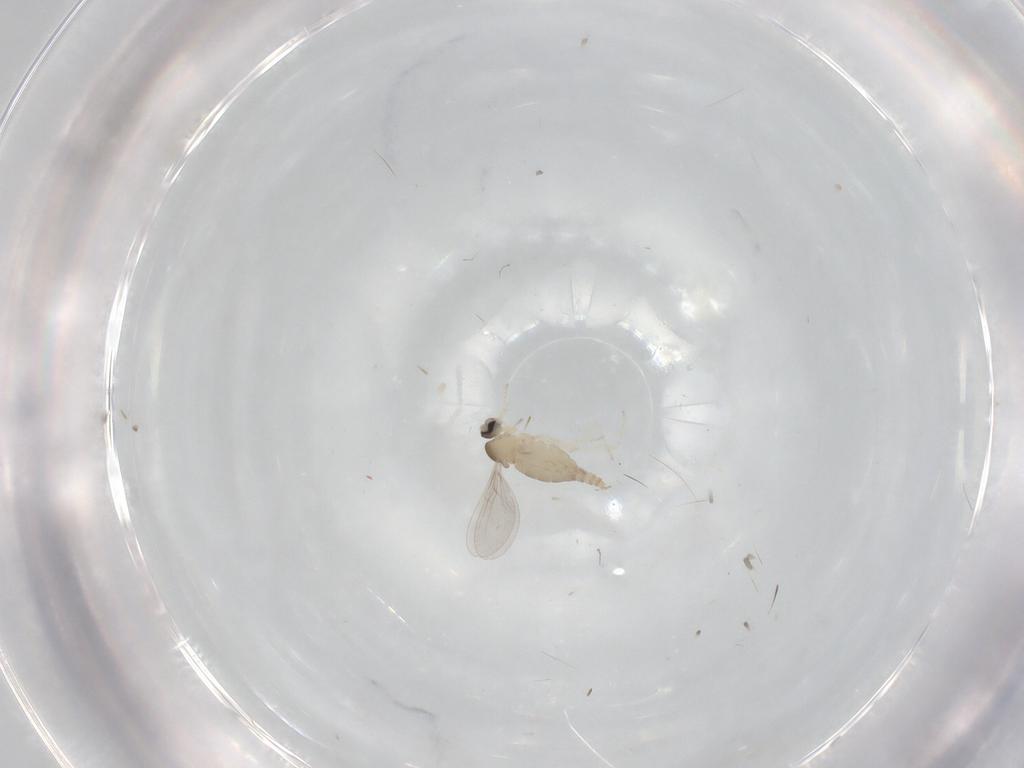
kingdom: Animalia
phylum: Arthropoda
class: Insecta
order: Diptera
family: Cecidomyiidae
